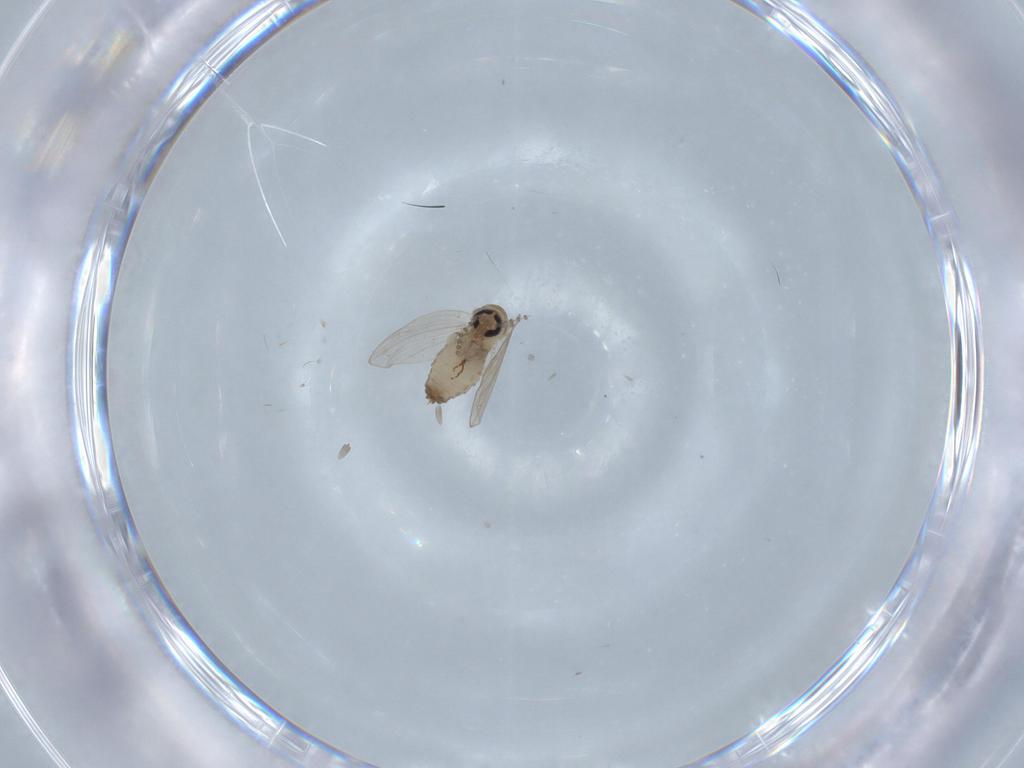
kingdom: Animalia
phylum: Arthropoda
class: Insecta
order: Diptera
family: Psychodidae
